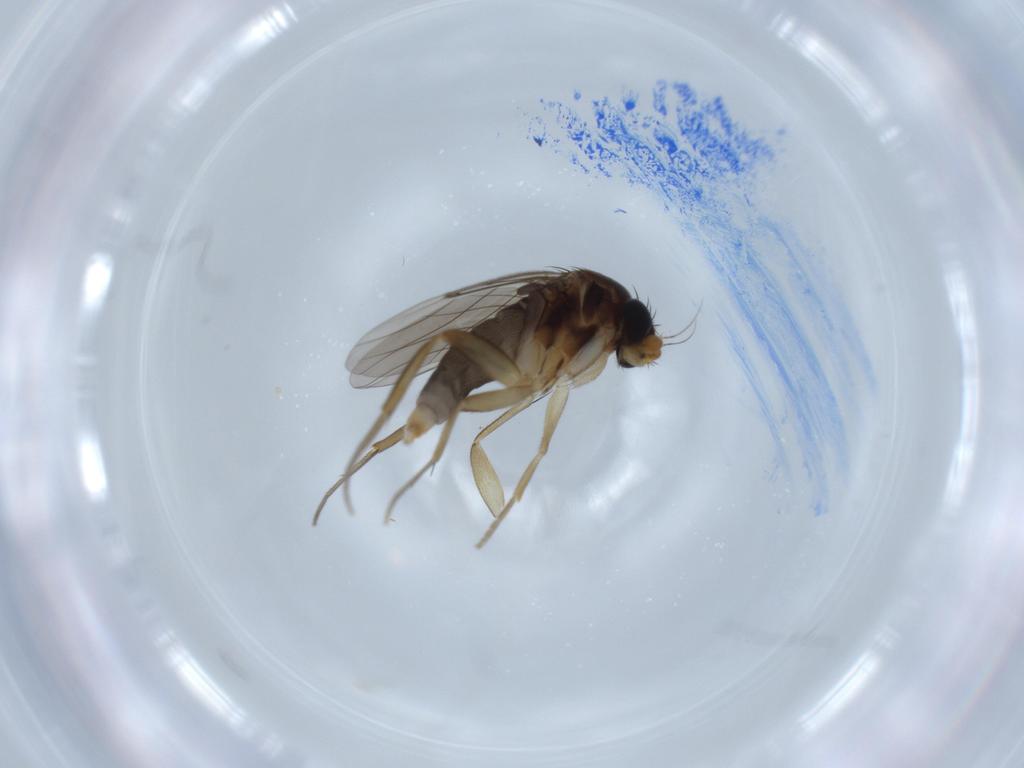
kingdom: Animalia
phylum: Arthropoda
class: Insecta
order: Diptera
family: Phoridae
